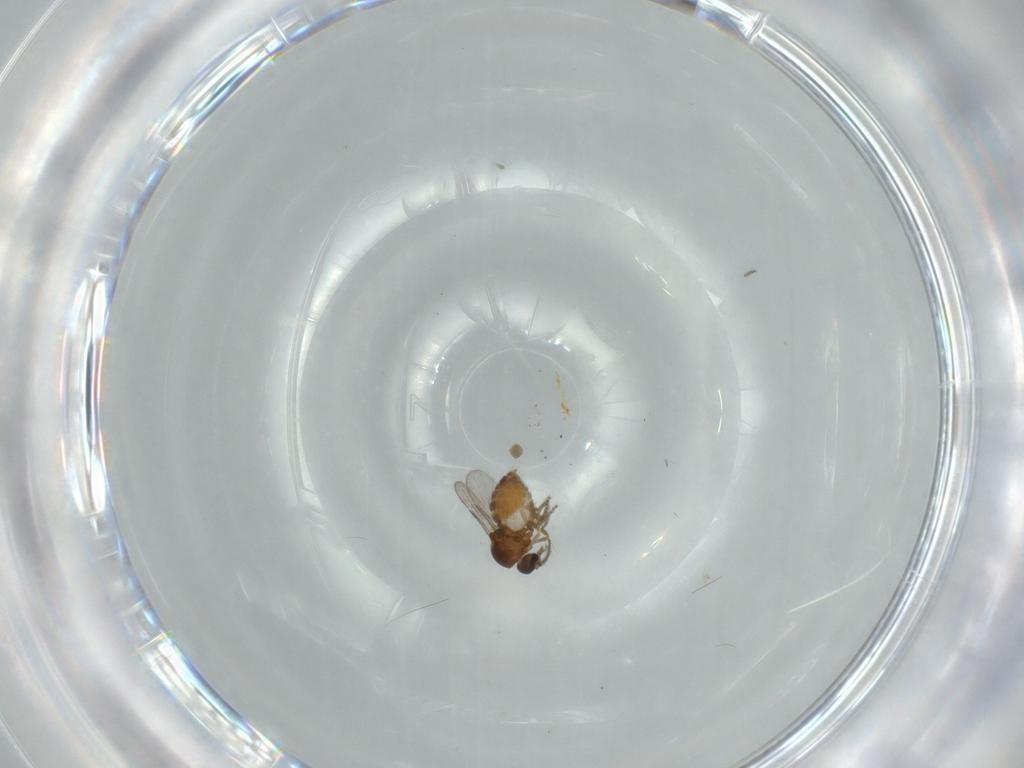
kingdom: Animalia
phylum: Arthropoda
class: Insecta
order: Diptera
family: Ceratopogonidae
